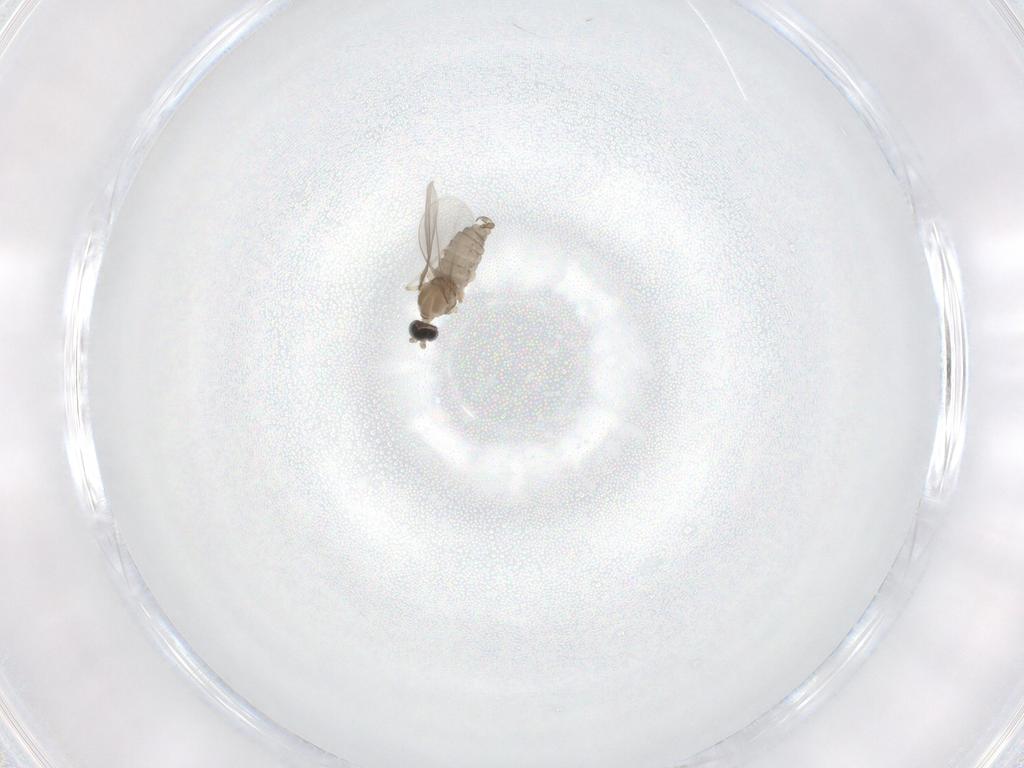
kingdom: Animalia
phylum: Arthropoda
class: Insecta
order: Diptera
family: Cecidomyiidae
